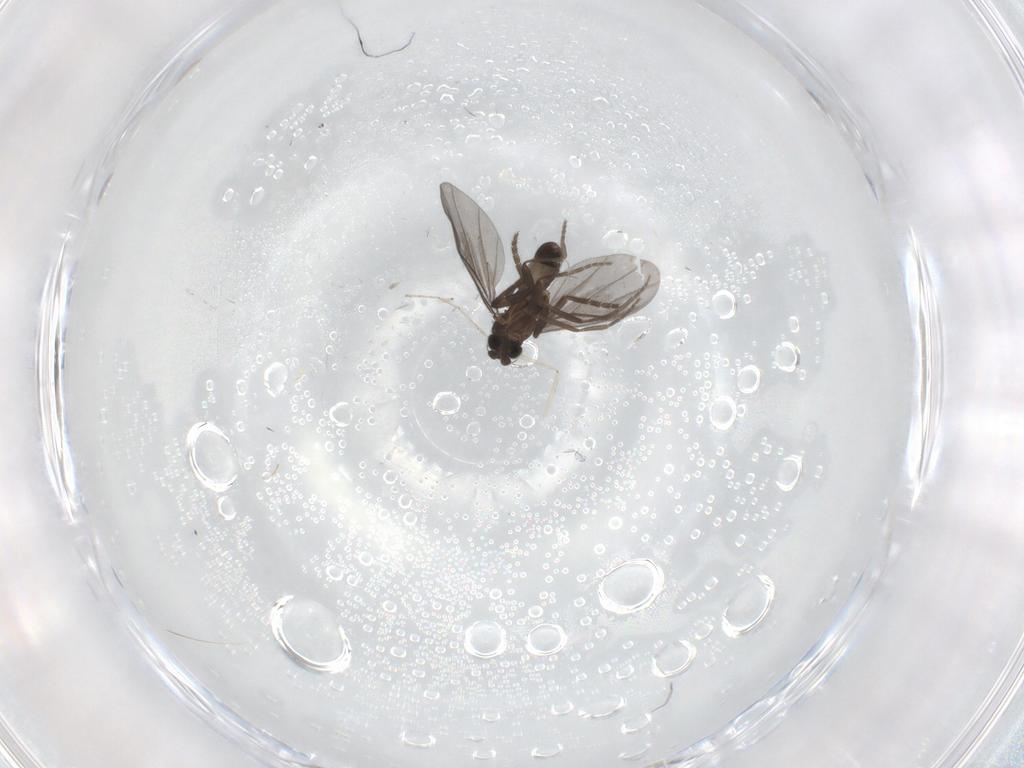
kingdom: Animalia
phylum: Arthropoda
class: Insecta
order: Diptera
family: Phoridae
